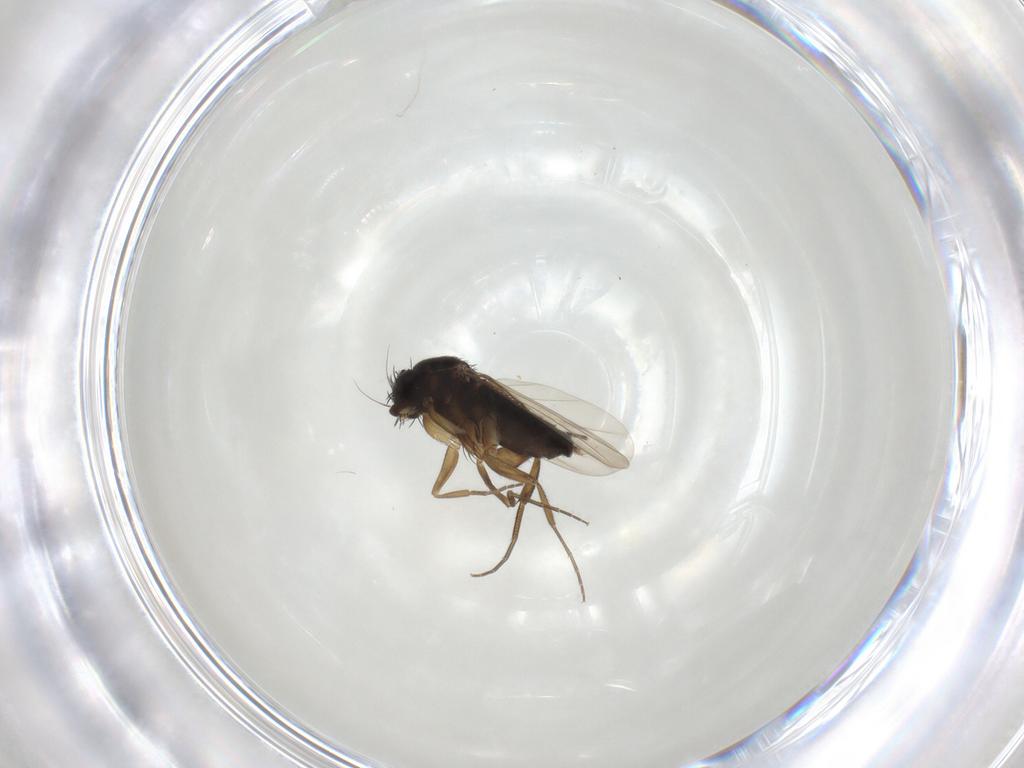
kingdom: Animalia
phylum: Arthropoda
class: Insecta
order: Diptera
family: Phoridae
